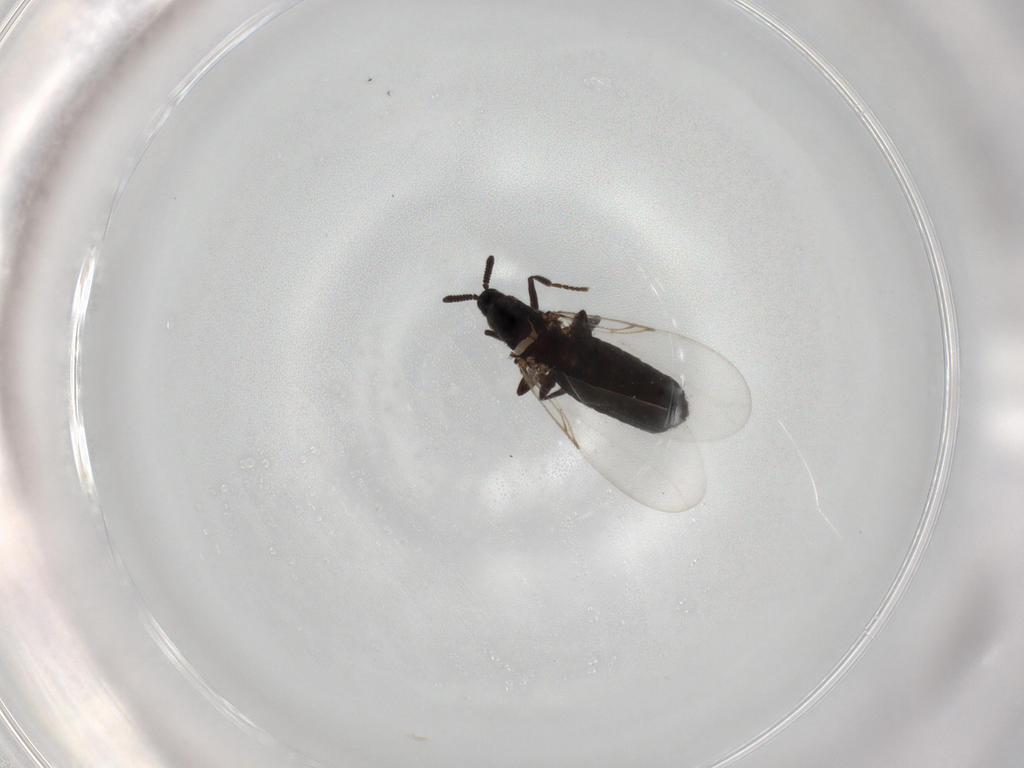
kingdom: Animalia
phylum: Arthropoda
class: Insecta
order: Diptera
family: Scatopsidae
